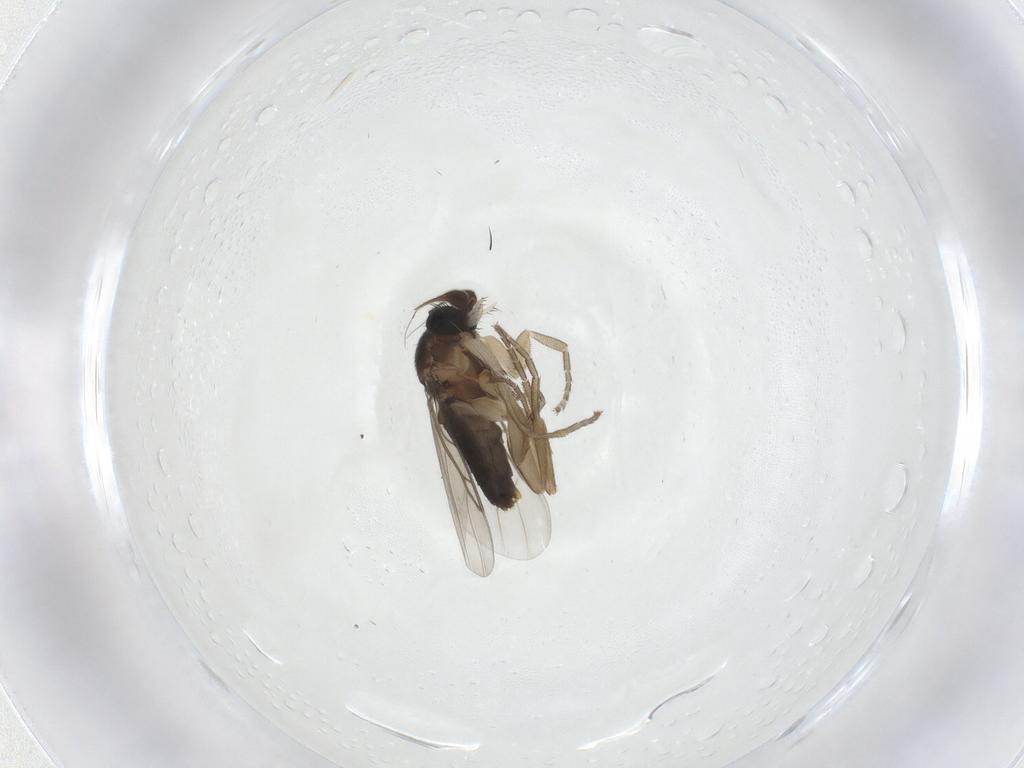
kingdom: Animalia
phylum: Arthropoda
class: Insecta
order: Diptera
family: Phoridae
